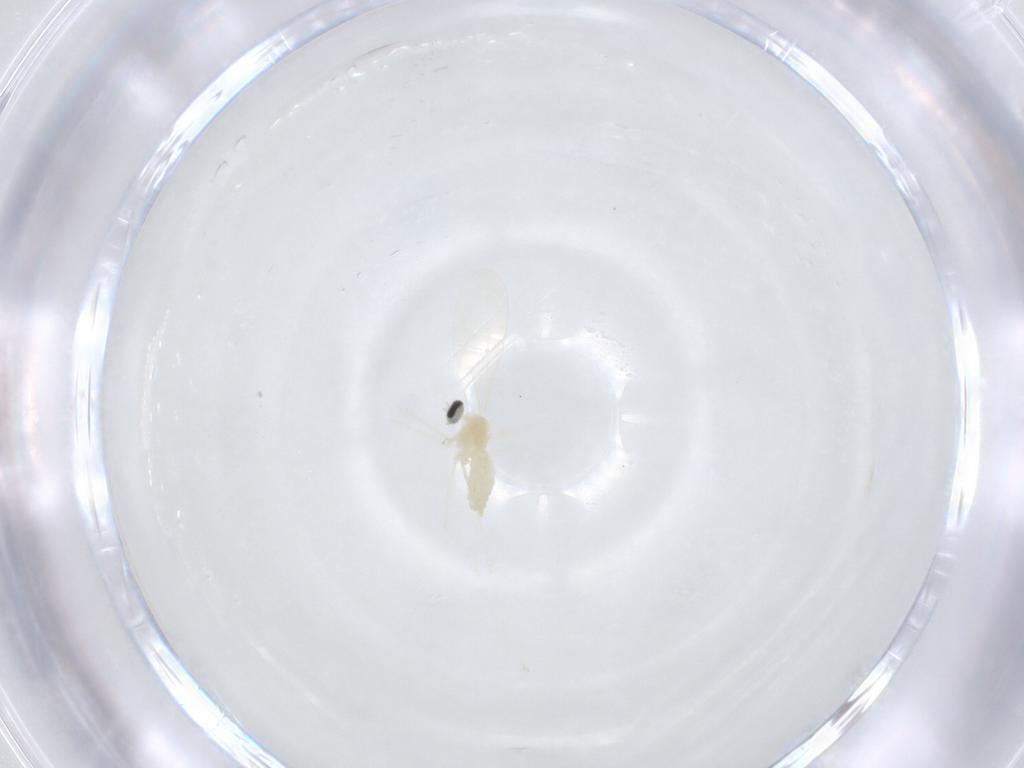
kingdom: Animalia
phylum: Arthropoda
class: Insecta
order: Diptera
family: Cecidomyiidae
